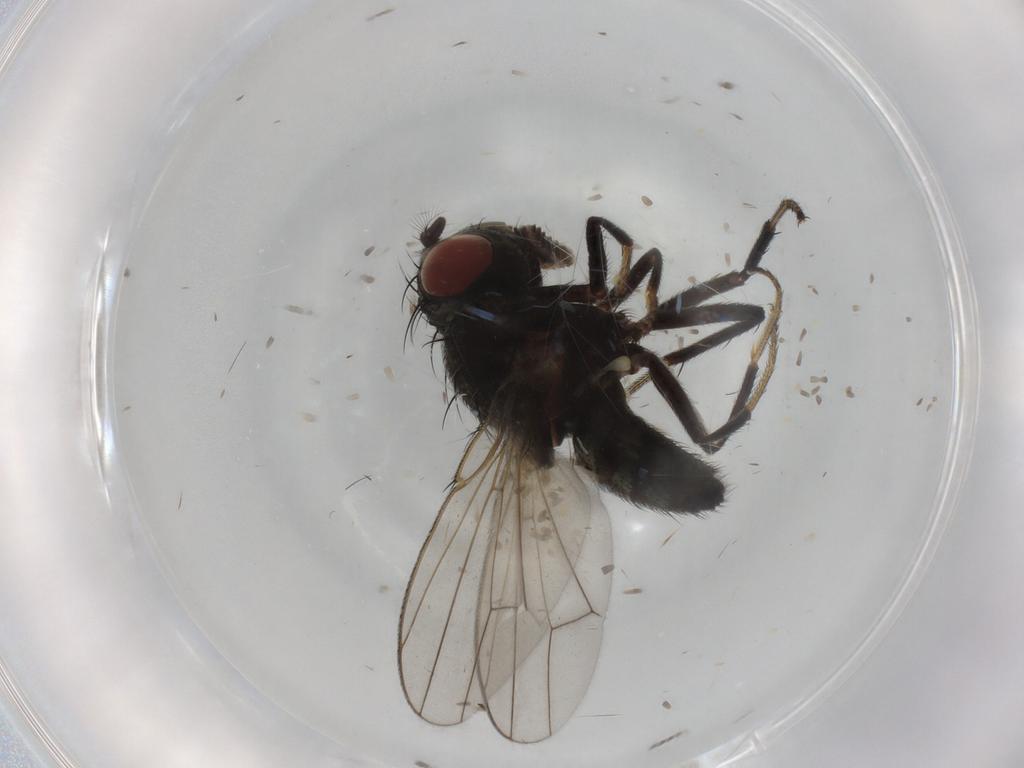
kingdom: Animalia
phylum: Arthropoda
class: Insecta
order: Diptera
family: Ephydridae
